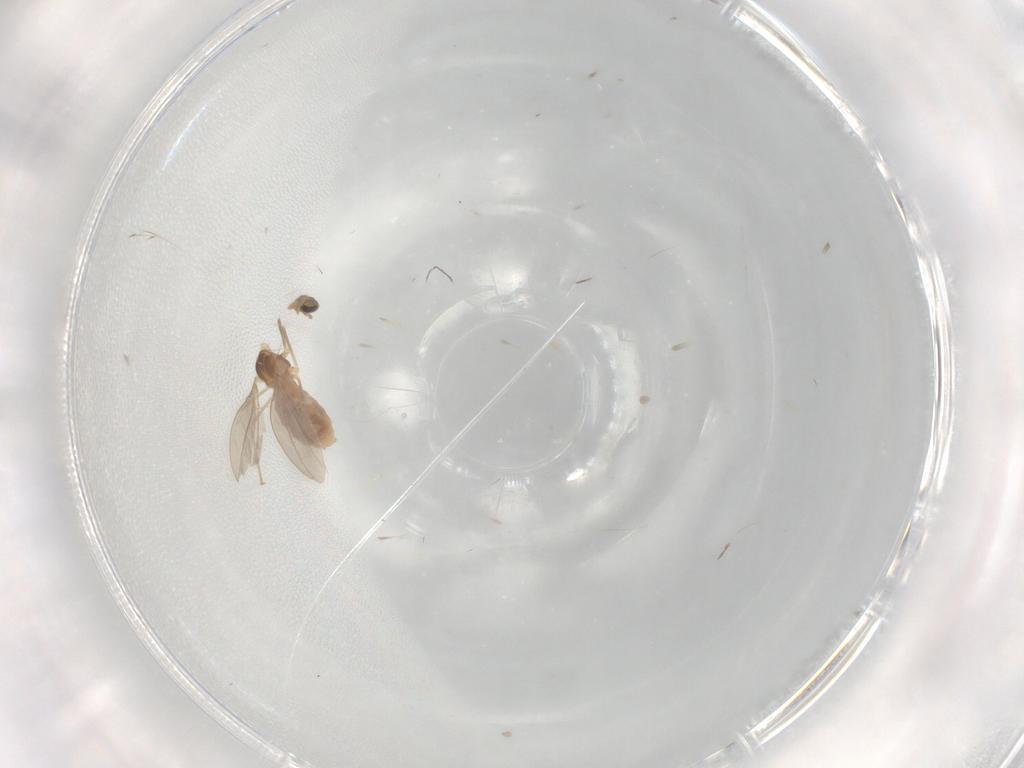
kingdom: Animalia
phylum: Arthropoda
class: Insecta
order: Diptera
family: Cecidomyiidae
